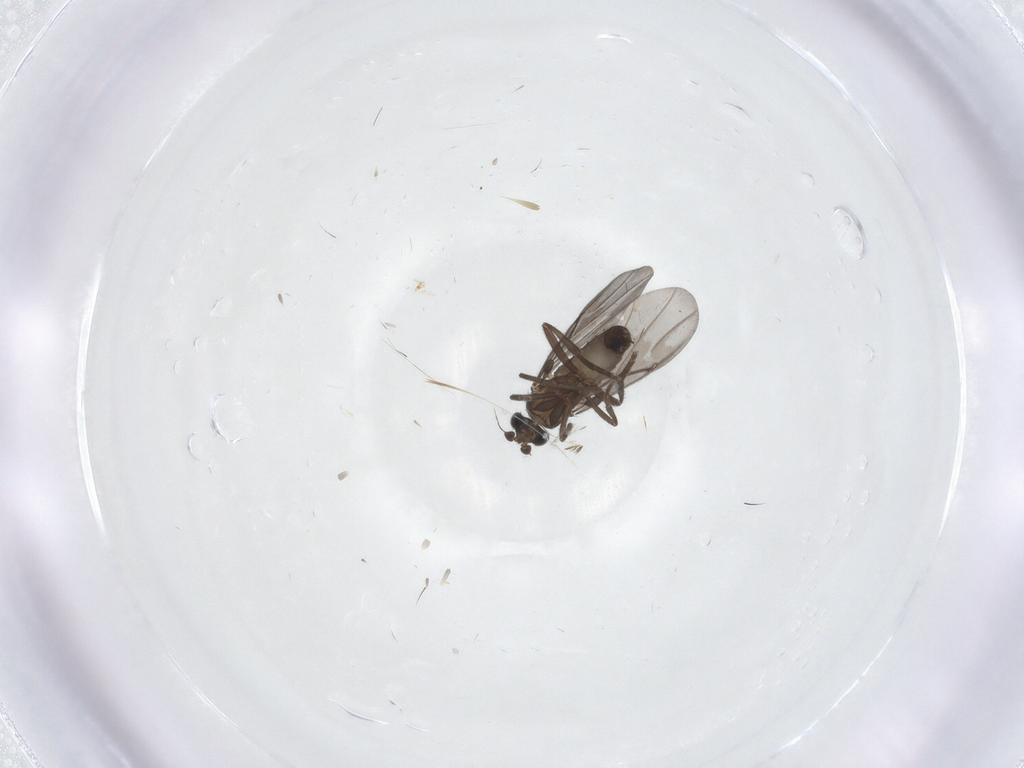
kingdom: Animalia
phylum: Arthropoda
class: Insecta
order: Diptera
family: Phoridae
